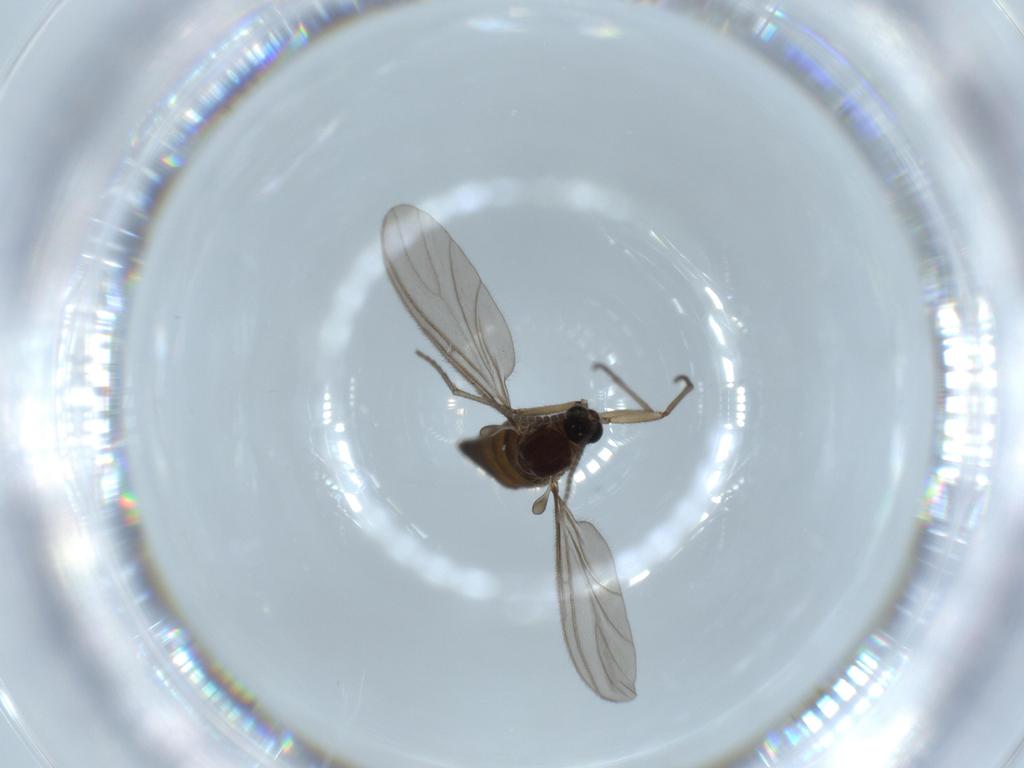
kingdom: Animalia
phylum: Arthropoda
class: Insecta
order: Diptera
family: Sciaridae
